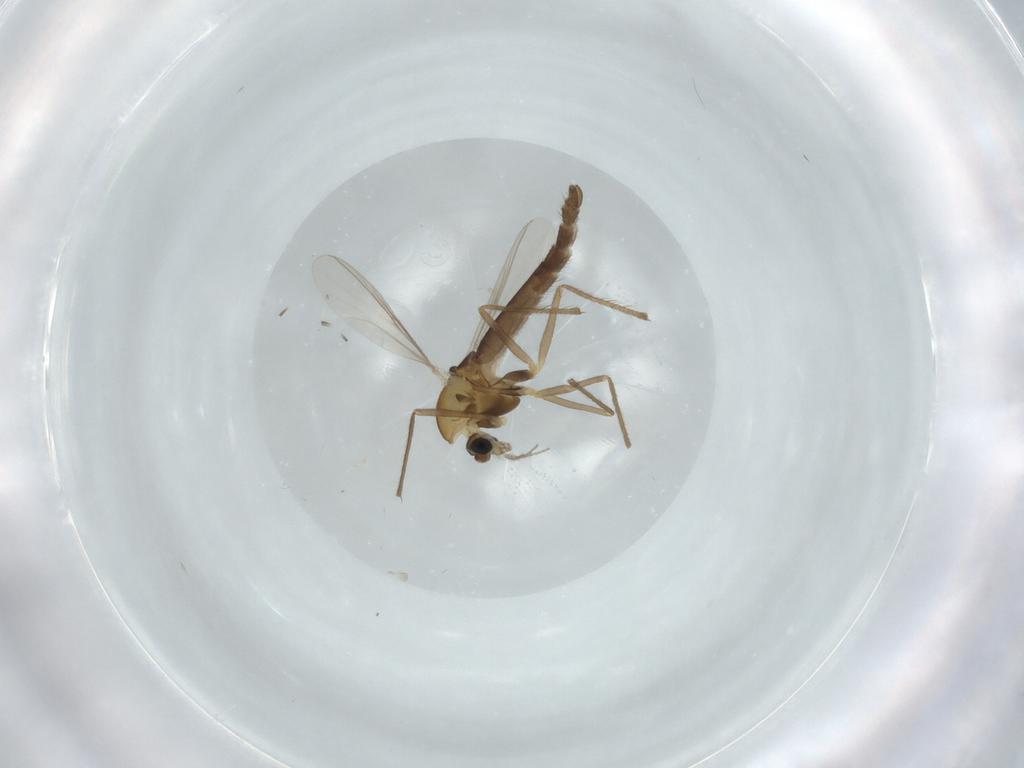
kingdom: Animalia
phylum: Arthropoda
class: Insecta
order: Diptera
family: Chironomidae
